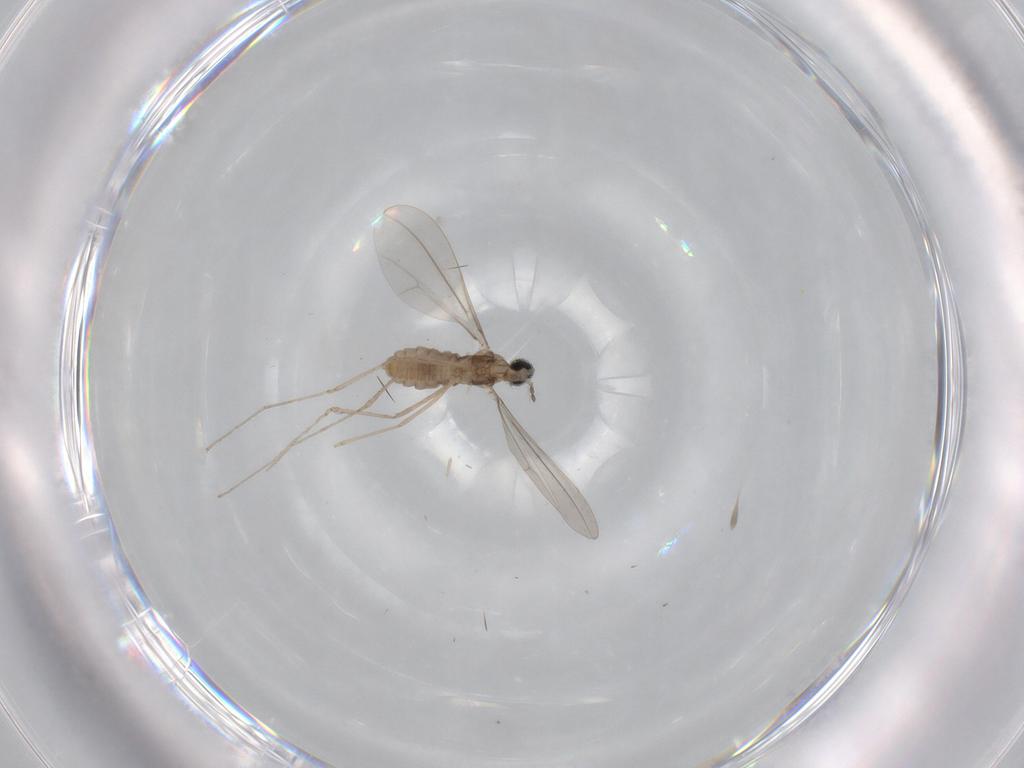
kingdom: Animalia
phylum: Arthropoda
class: Insecta
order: Diptera
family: Cecidomyiidae
